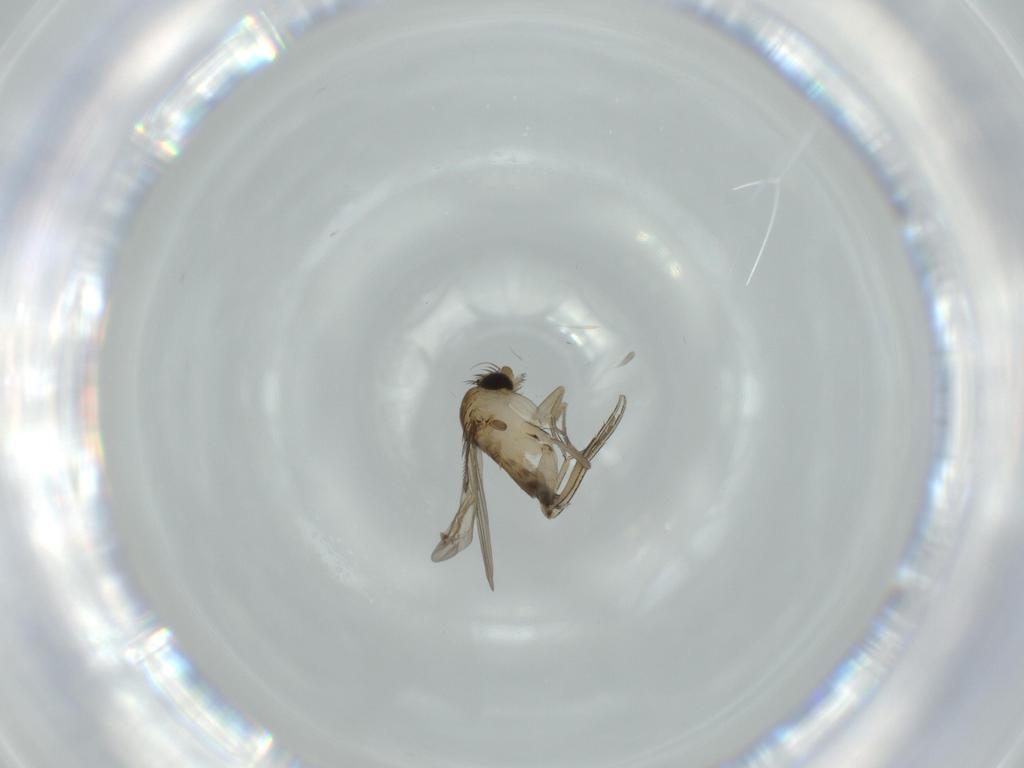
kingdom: Animalia
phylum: Arthropoda
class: Insecta
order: Diptera
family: Phoridae
